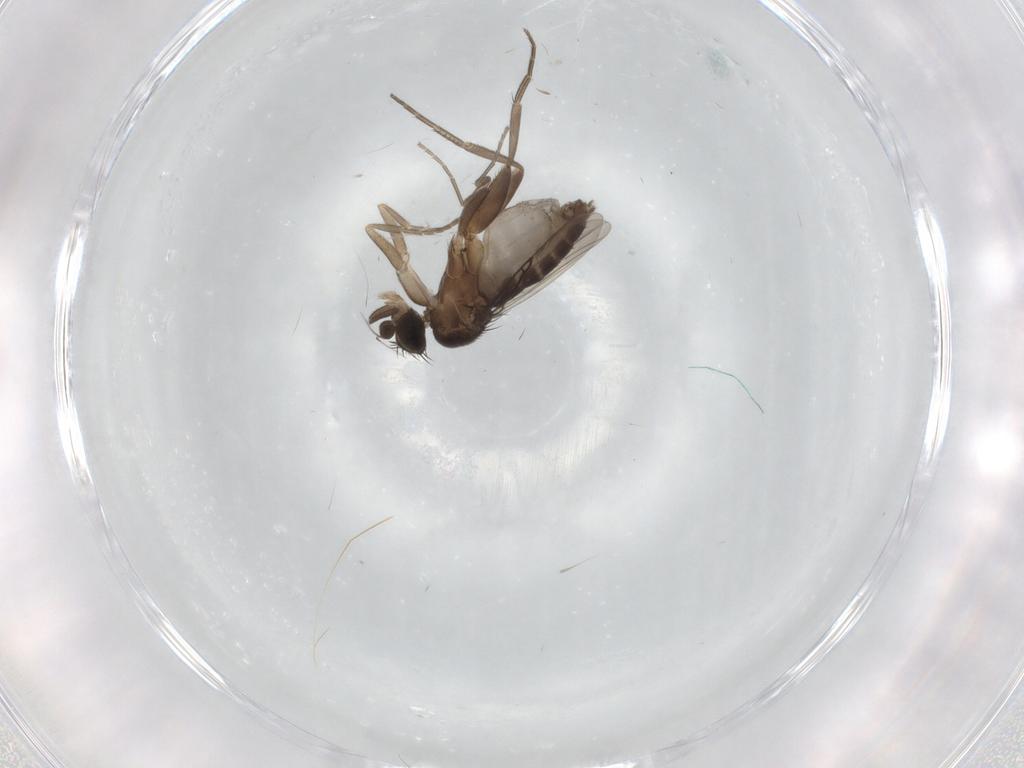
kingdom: Animalia
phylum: Arthropoda
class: Insecta
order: Diptera
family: Phoridae
